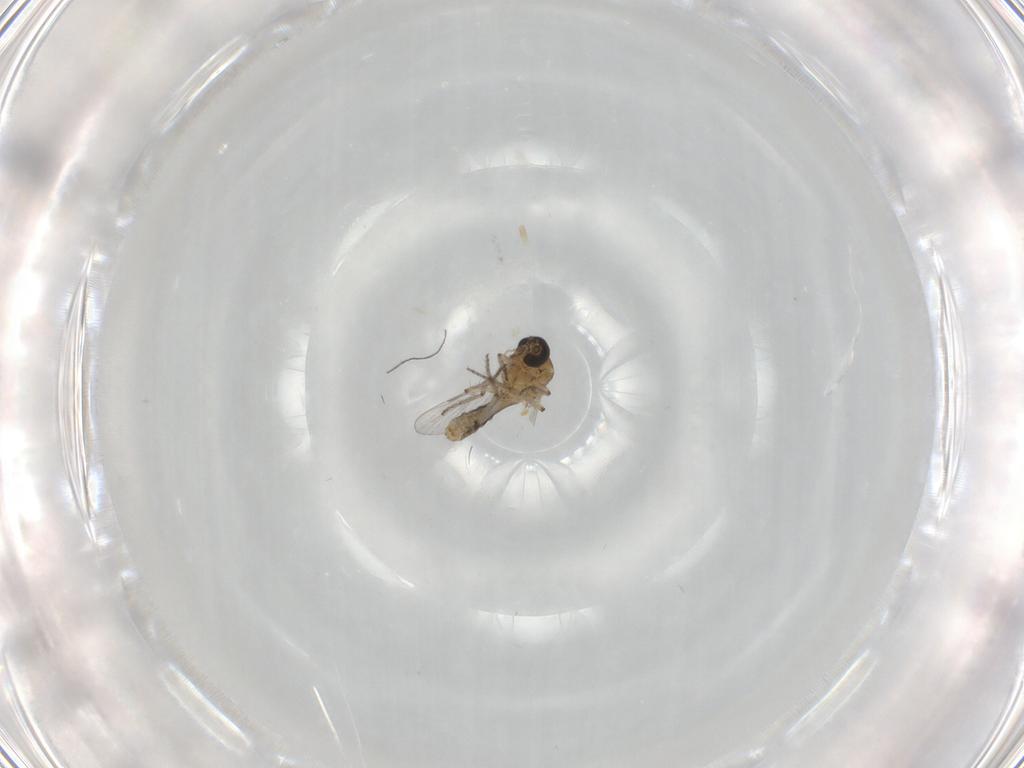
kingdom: Animalia
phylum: Arthropoda
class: Insecta
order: Diptera
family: Ceratopogonidae
